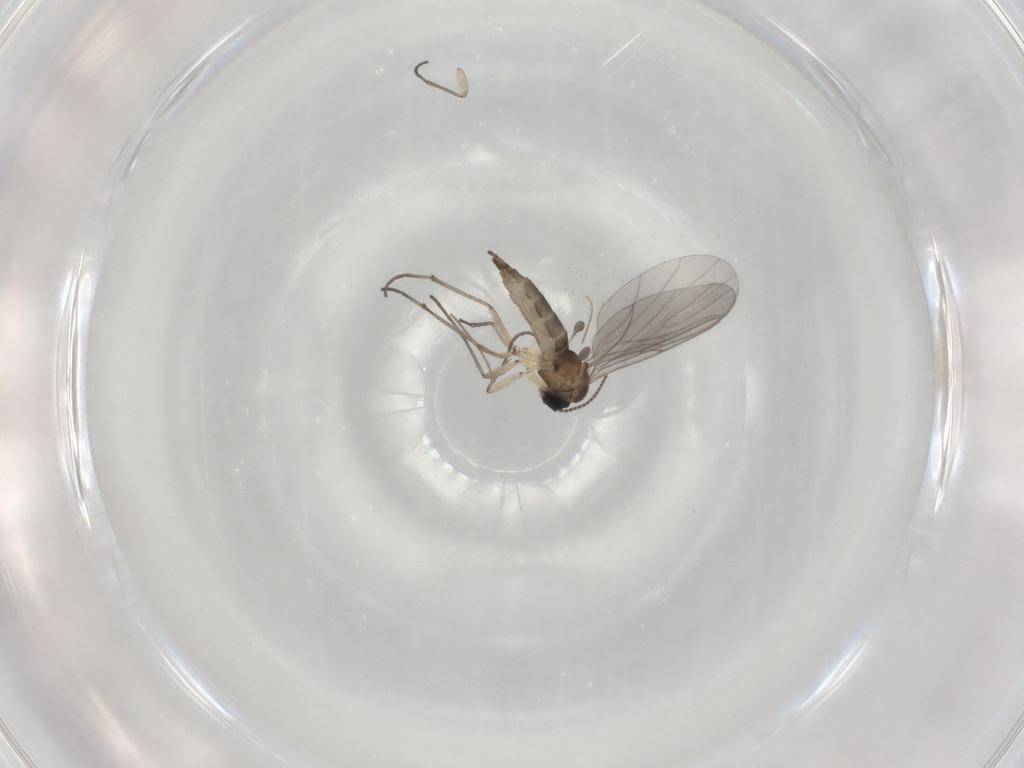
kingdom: Animalia
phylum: Arthropoda
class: Insecta
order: Diptera
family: Sciaridae
